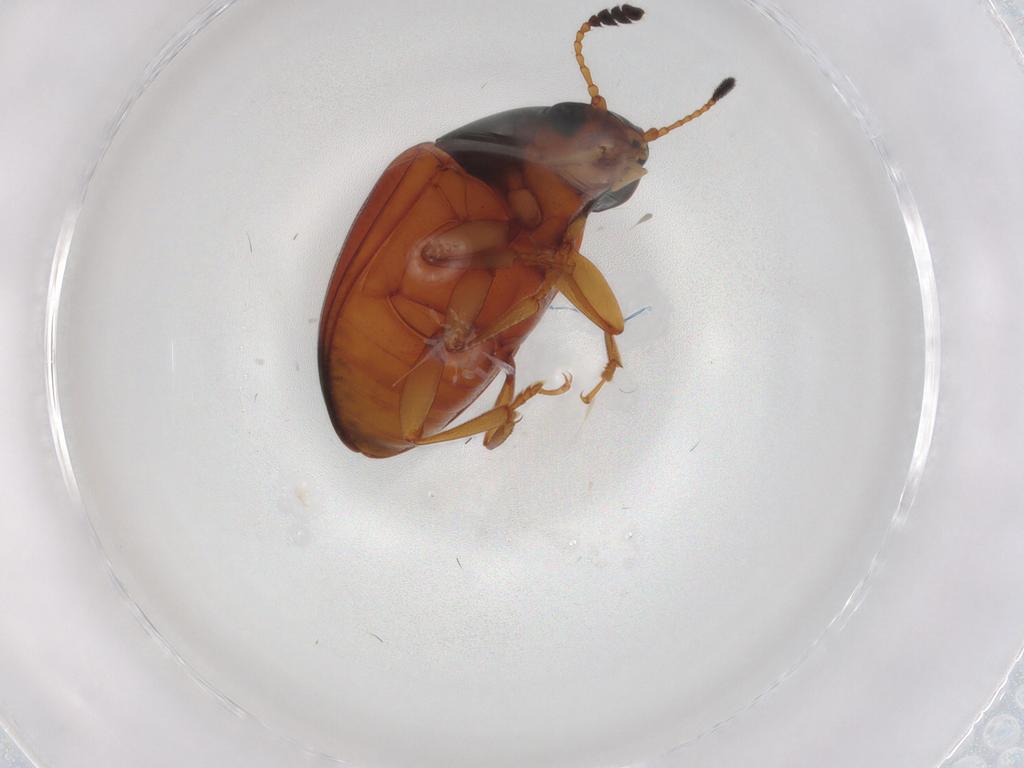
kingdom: Animalia
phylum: Arthropoda
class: Insecta
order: Coleoptera
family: Erotylidae
